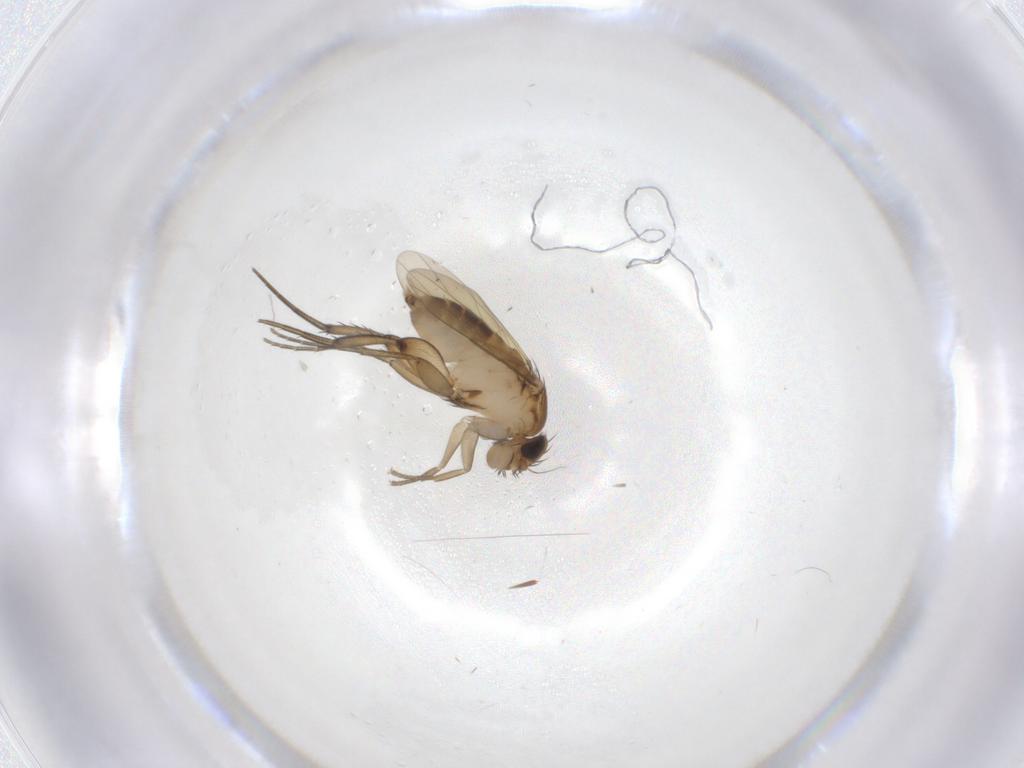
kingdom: Animalia
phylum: Arthropoda
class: Insecta
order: Diptera
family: Phoridae
